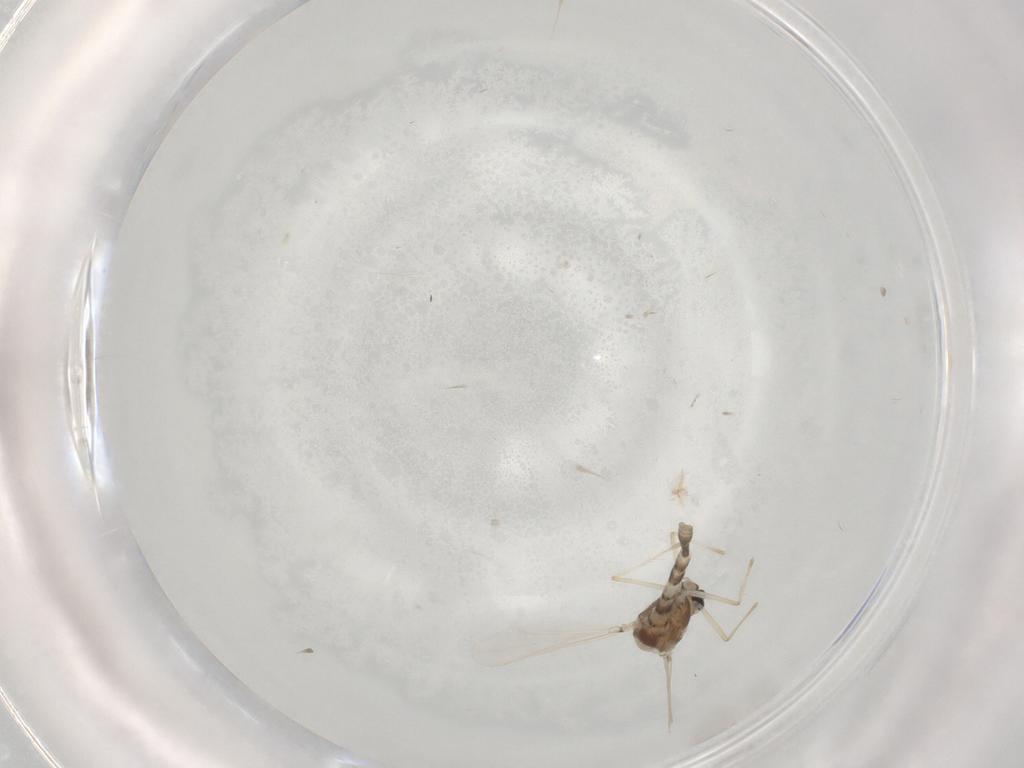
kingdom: Animalia
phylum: Arthropoda
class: Insecta
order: Diptera
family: Chironomidae
